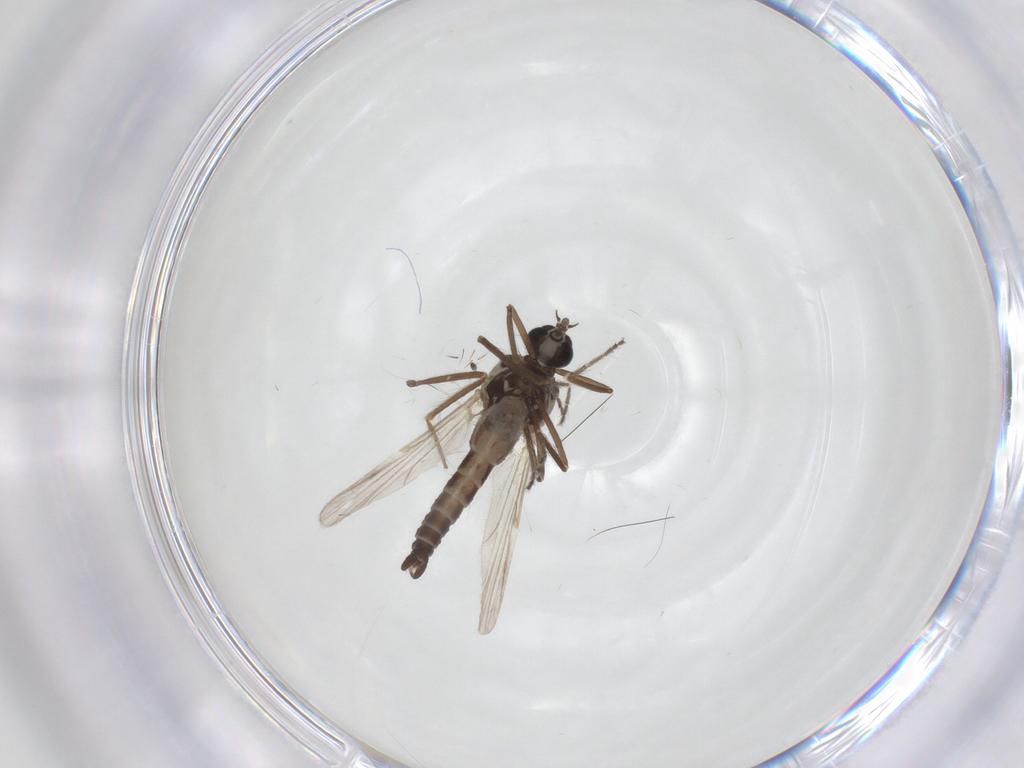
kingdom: Animalia
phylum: Arthropoda
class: Insecta
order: Diptera
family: Ceratopogonidae
